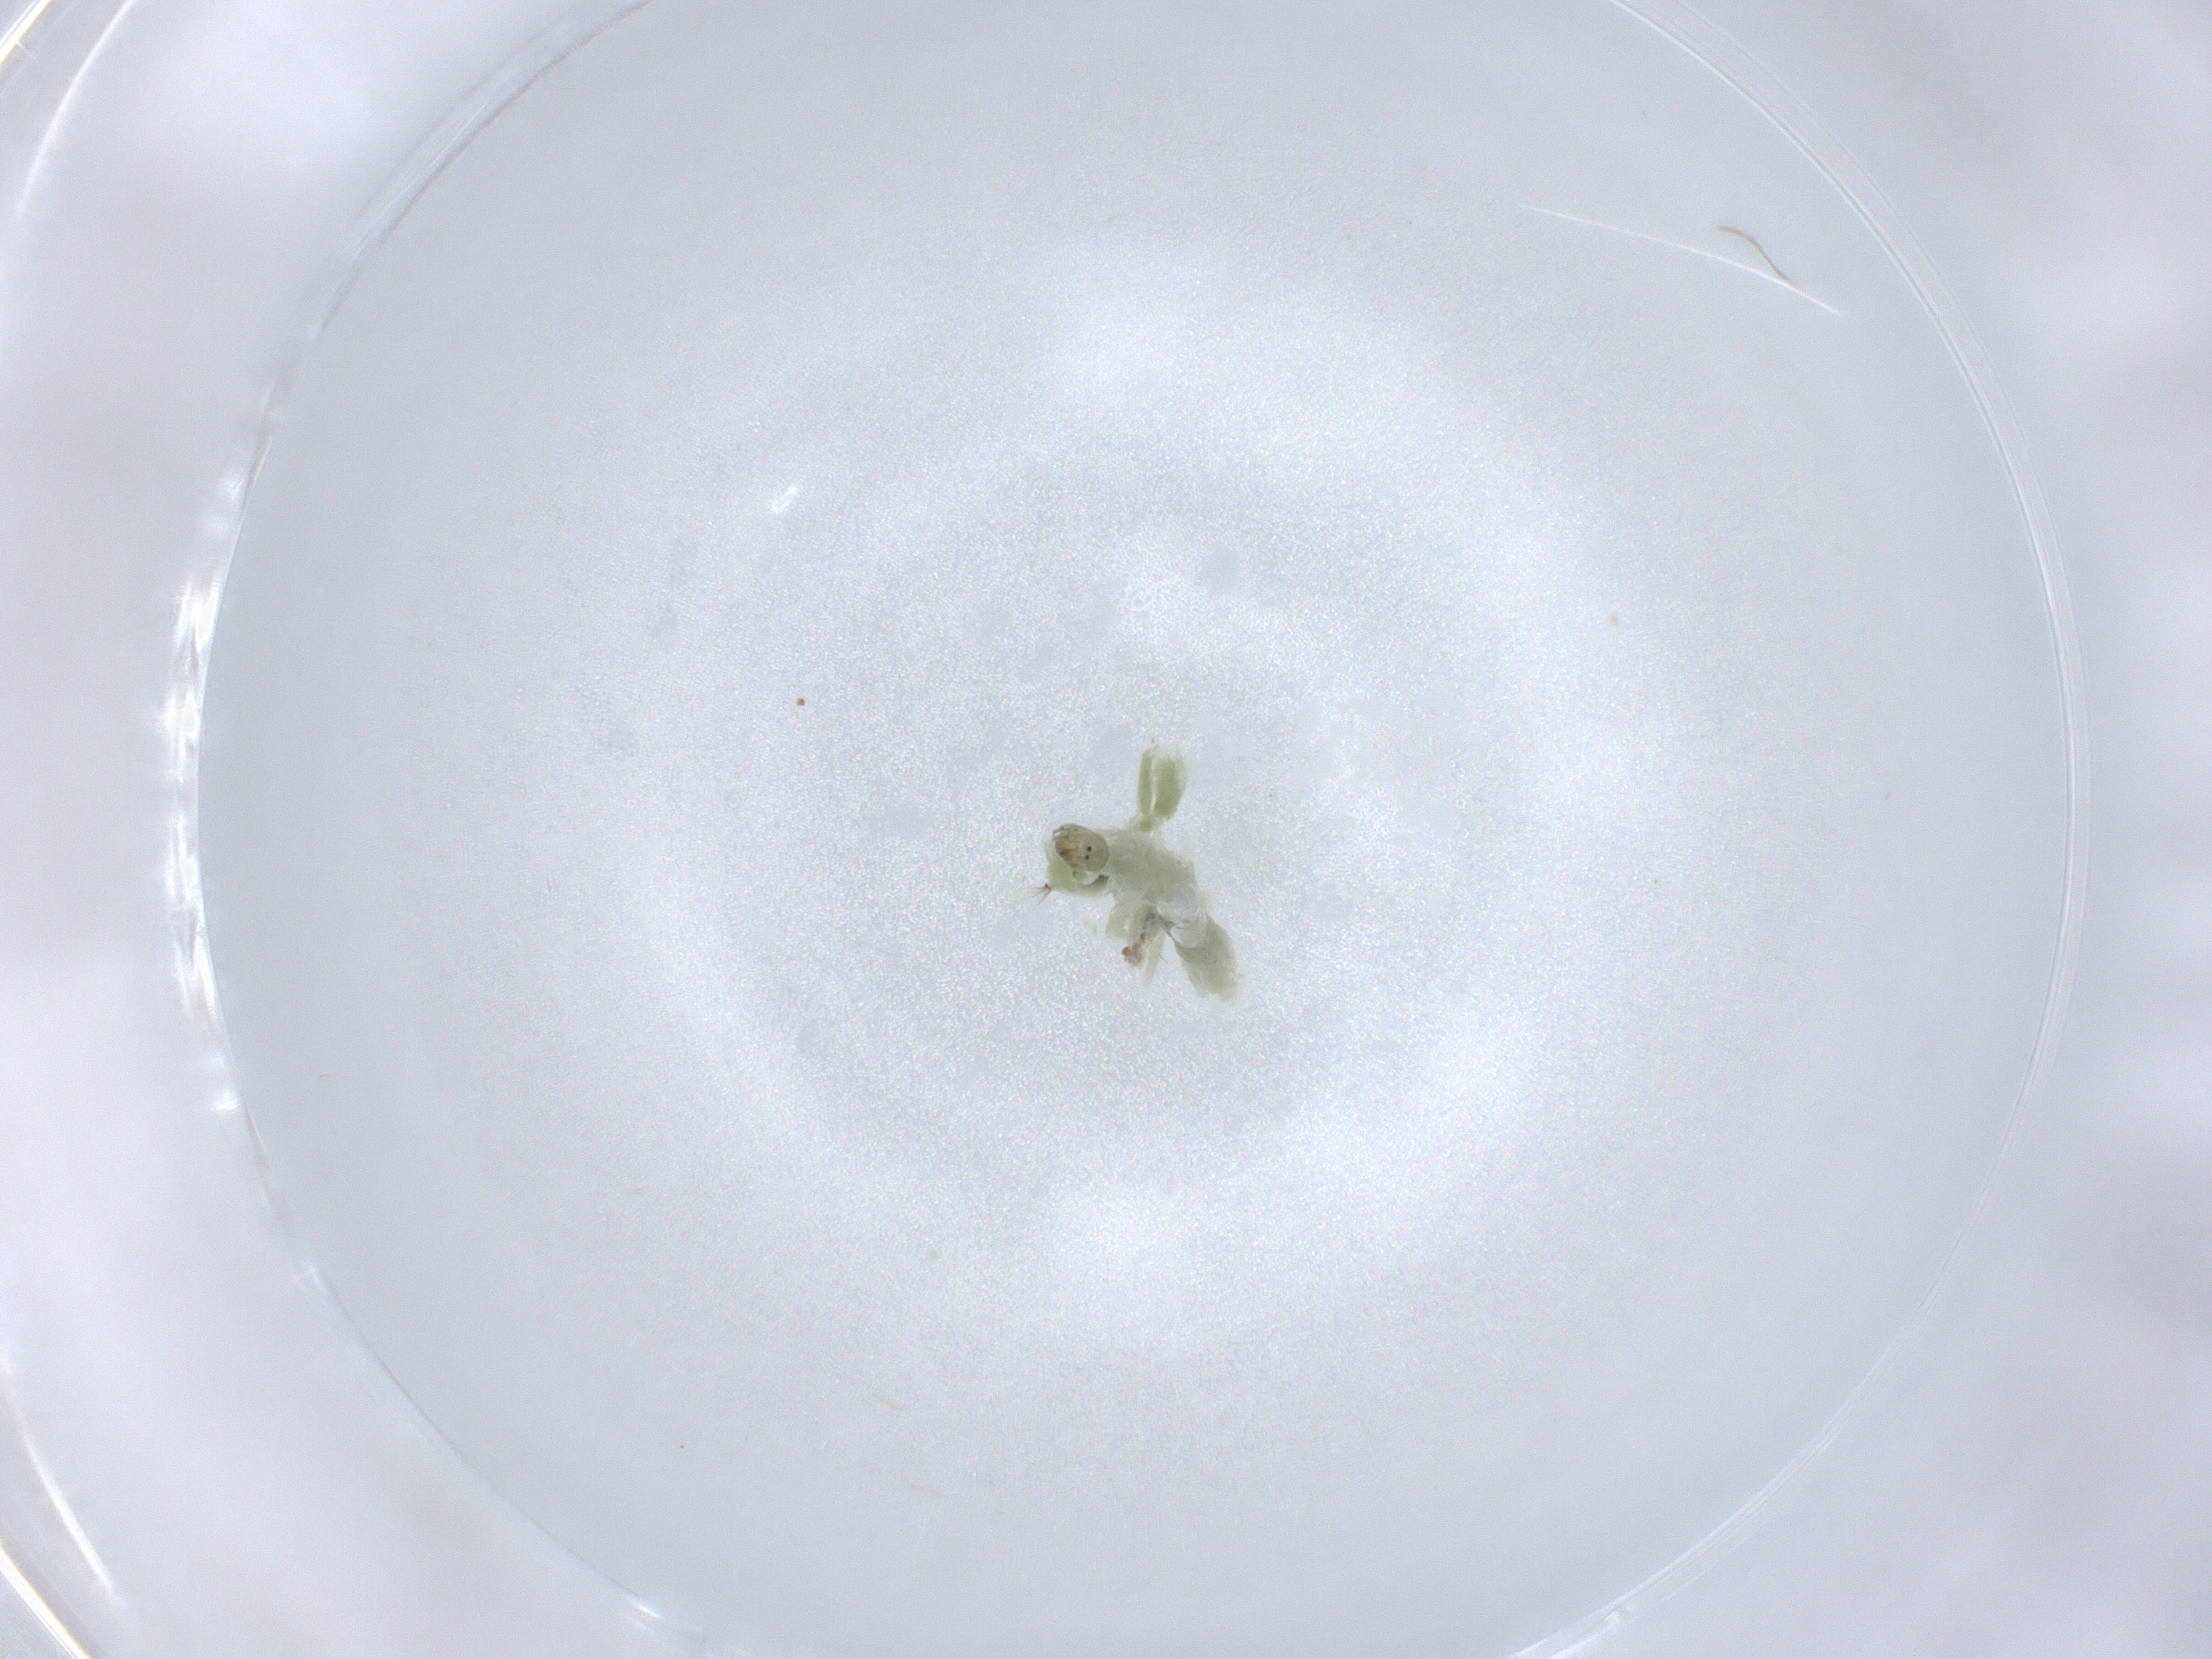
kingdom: Animalia
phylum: Arthropoda
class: Insecta
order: Diptera
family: Chironomidae
